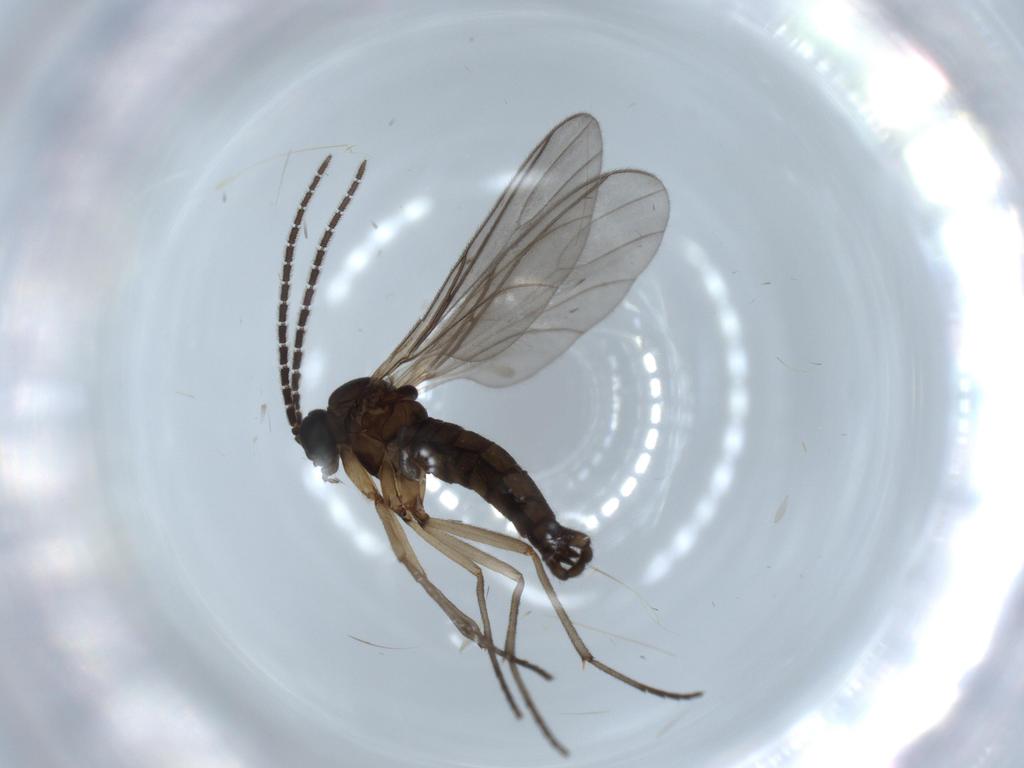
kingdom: Animalia
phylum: Arthropoda
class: Insecta
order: Diptera
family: Sciaridae
